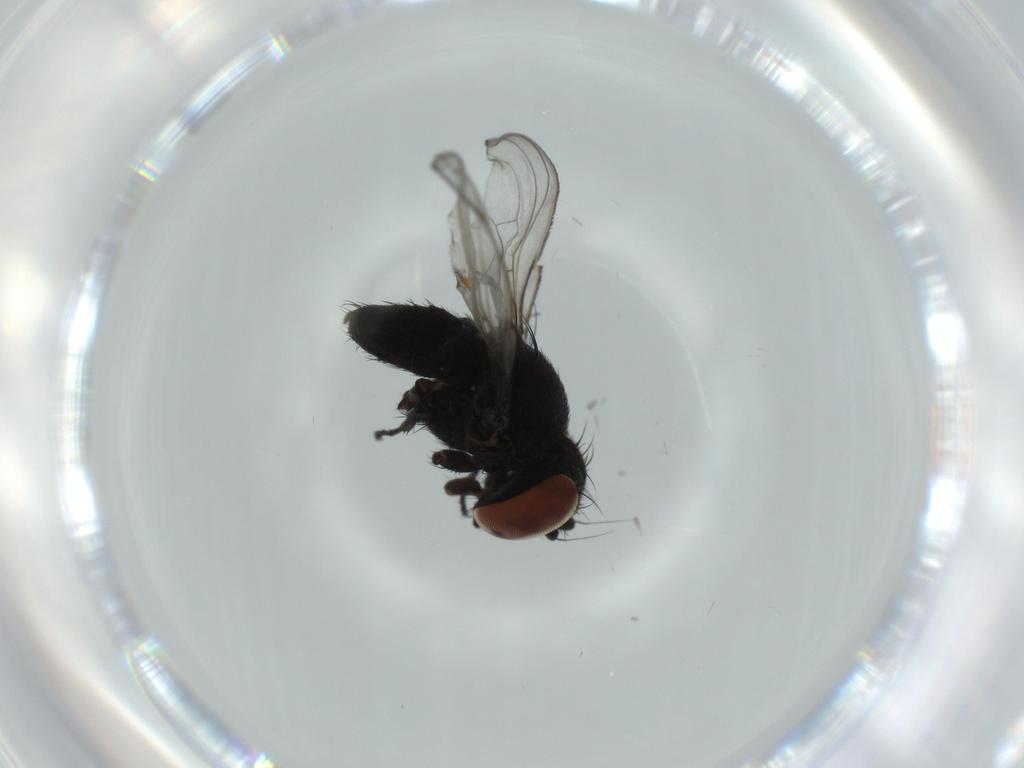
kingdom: Animalia
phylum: Arthropoda
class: Insecta
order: Diptera
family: Milichiidae
